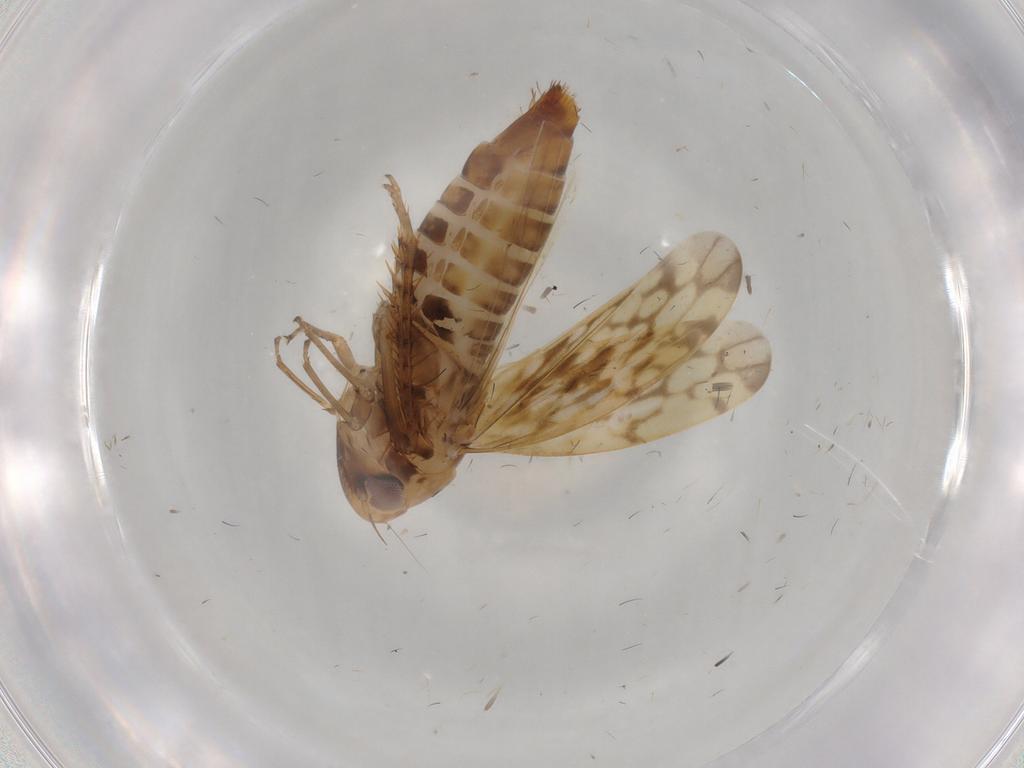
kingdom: Animalia
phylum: Arthropoda
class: Insecta
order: Hemiptera
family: Cicadellidae
